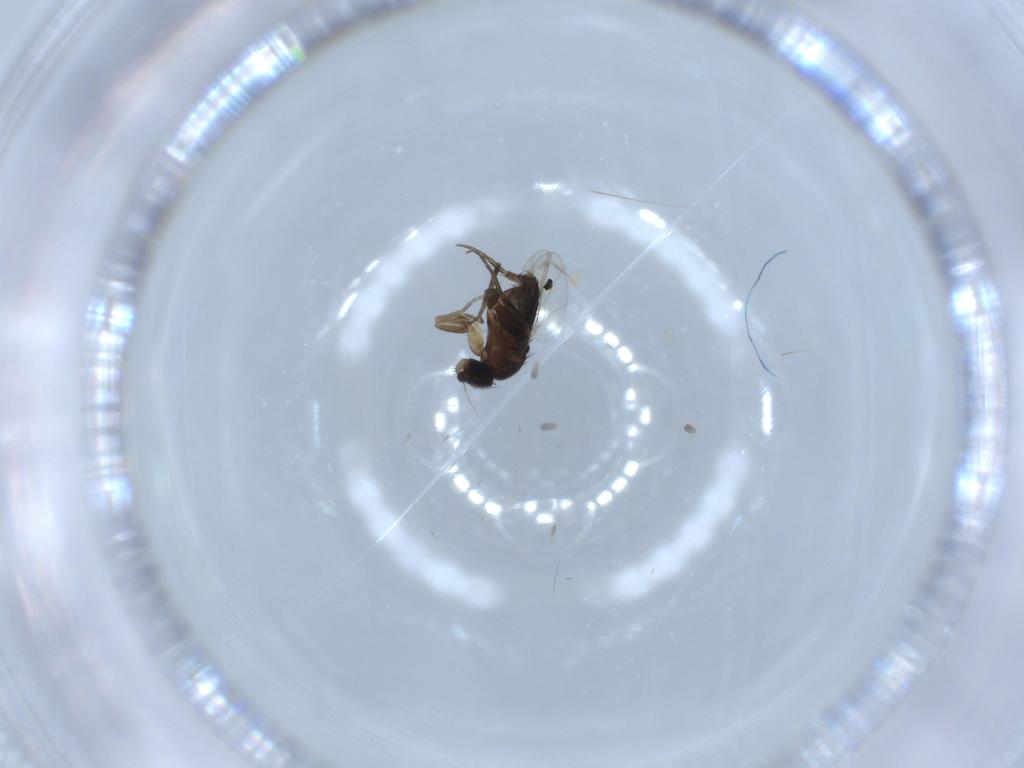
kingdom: Animalia
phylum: Arthropoda
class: Insecta
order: Diptera
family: Phoridae
